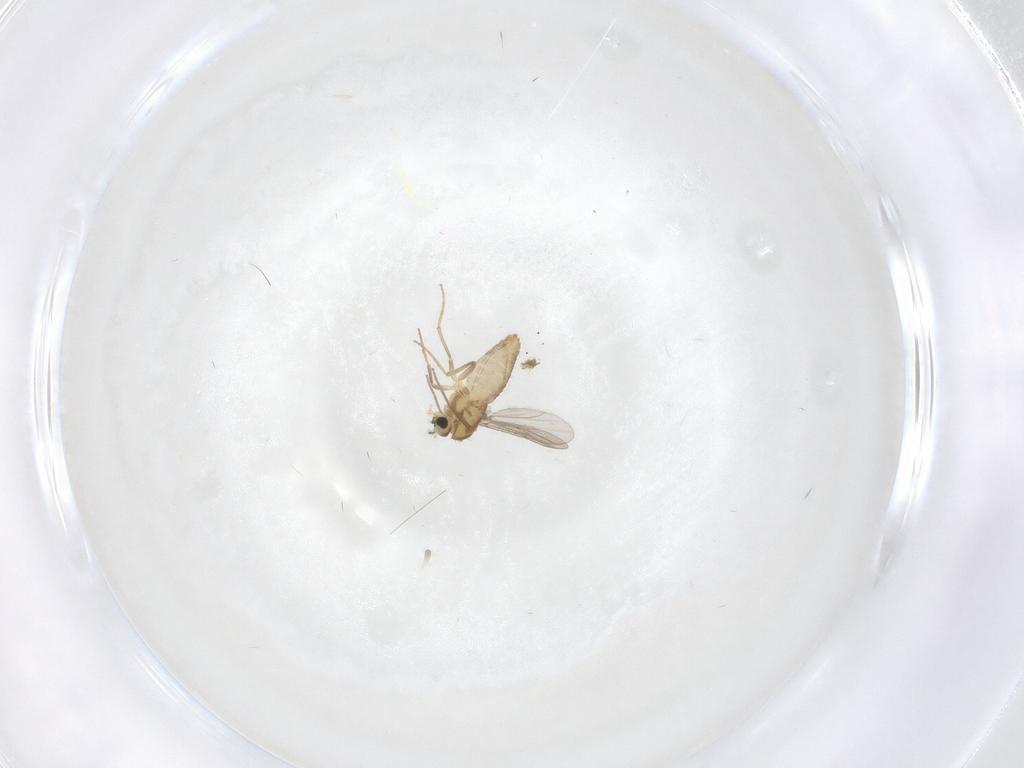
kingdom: Animalia
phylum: Arthropoda
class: Insecta
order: Diptera
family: Chironomidae
